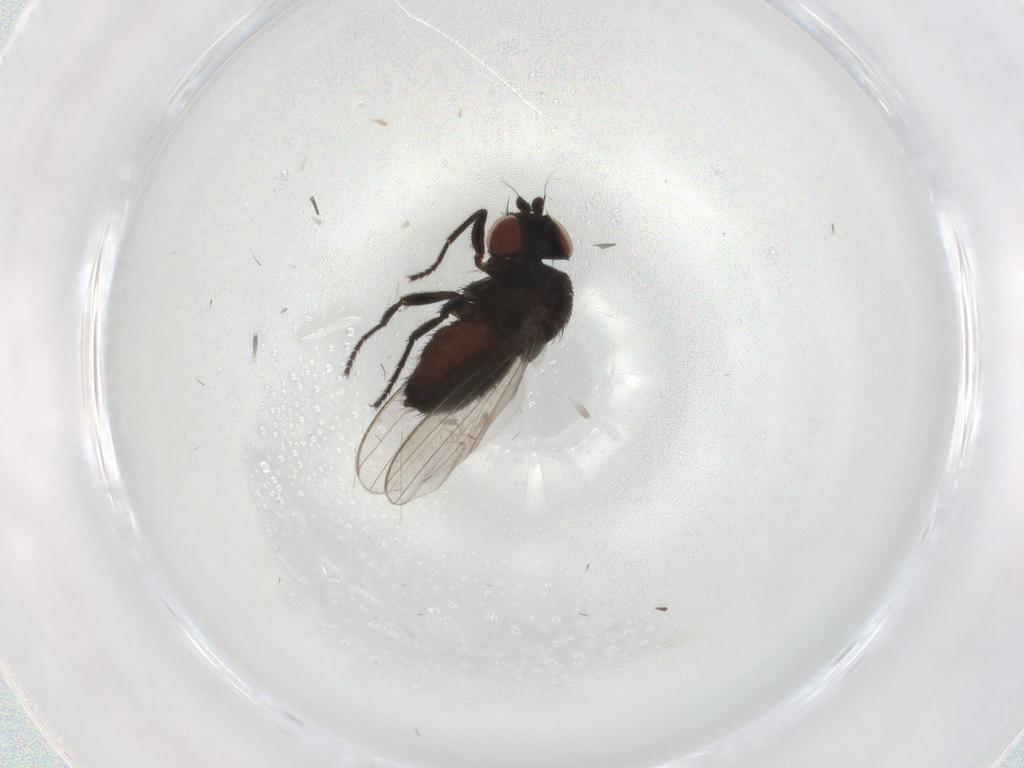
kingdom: Animalia
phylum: Arthropoda
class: Insecta
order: Diptera
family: Milichiidae
